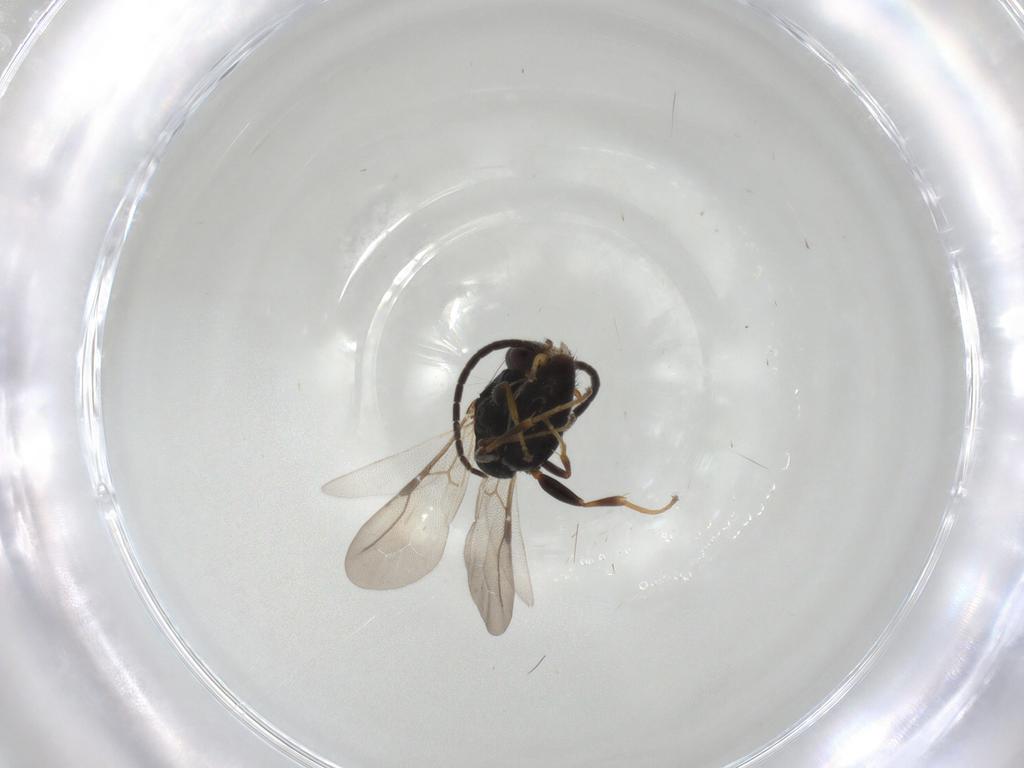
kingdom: Animalia
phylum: Arthropoda
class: Insecta
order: Hymenoptera
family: Bethylidae
